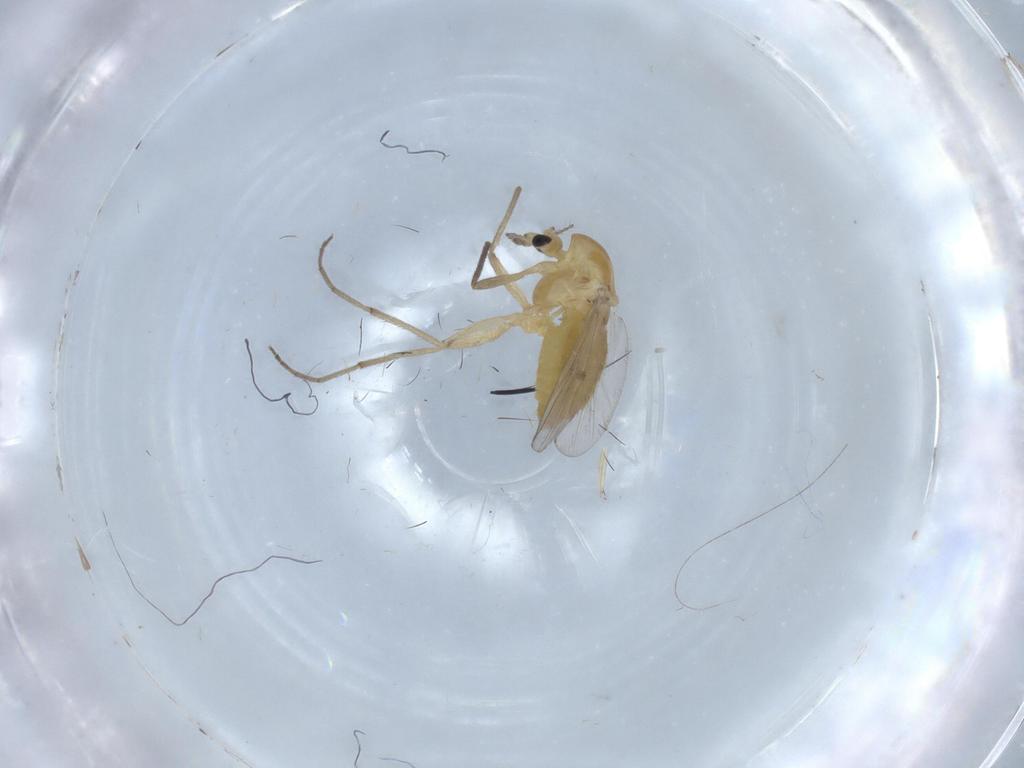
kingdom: Animalia
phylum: Arthropoda
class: Insecta
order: Diptera
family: Chironomidae
